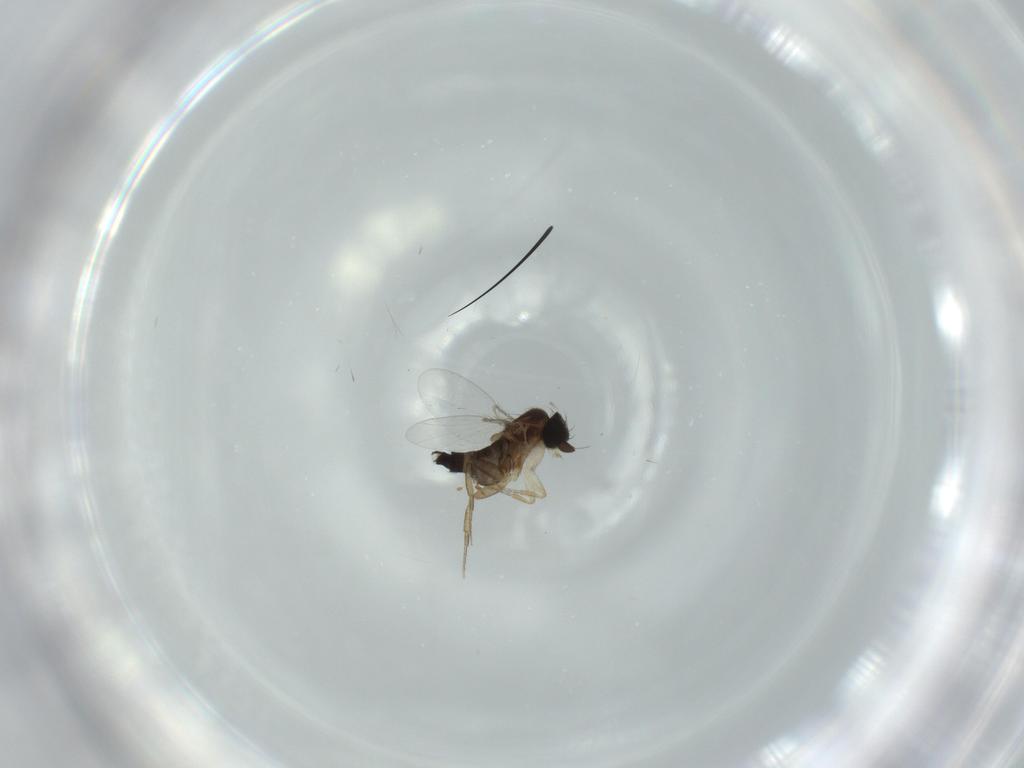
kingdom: Animalia
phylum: Arthropoda
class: Insecta
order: Diptera
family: Phoridae
